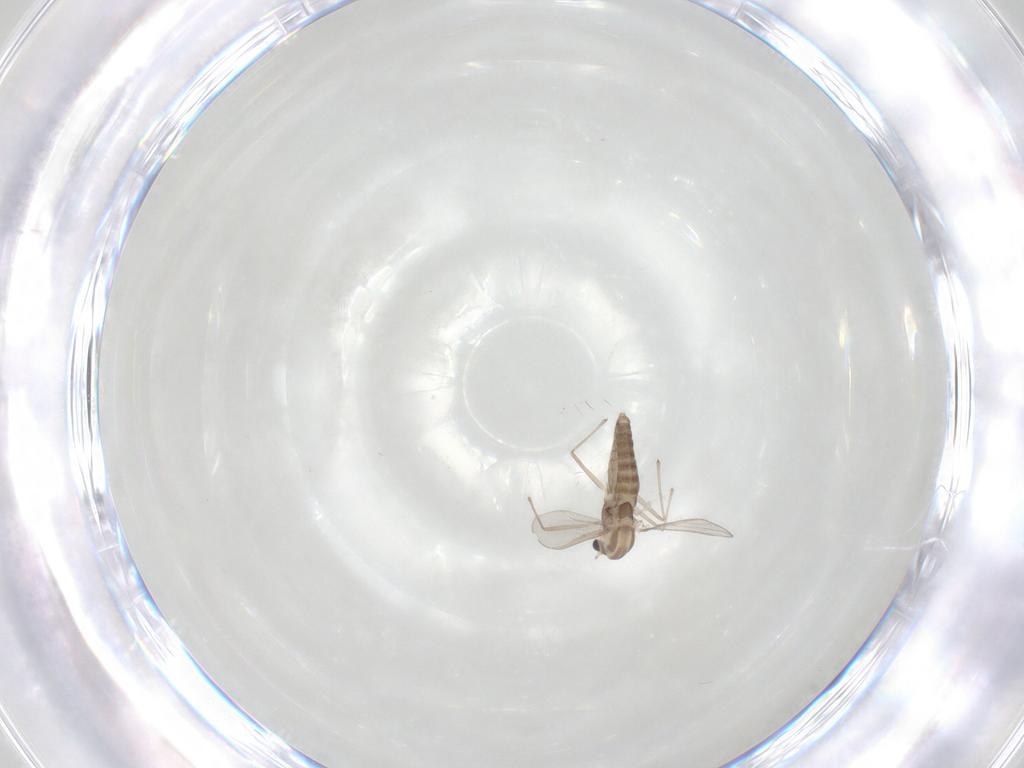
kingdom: Animalia
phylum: Arthropoda
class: Insecta
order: Diptera
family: Chironomidae
